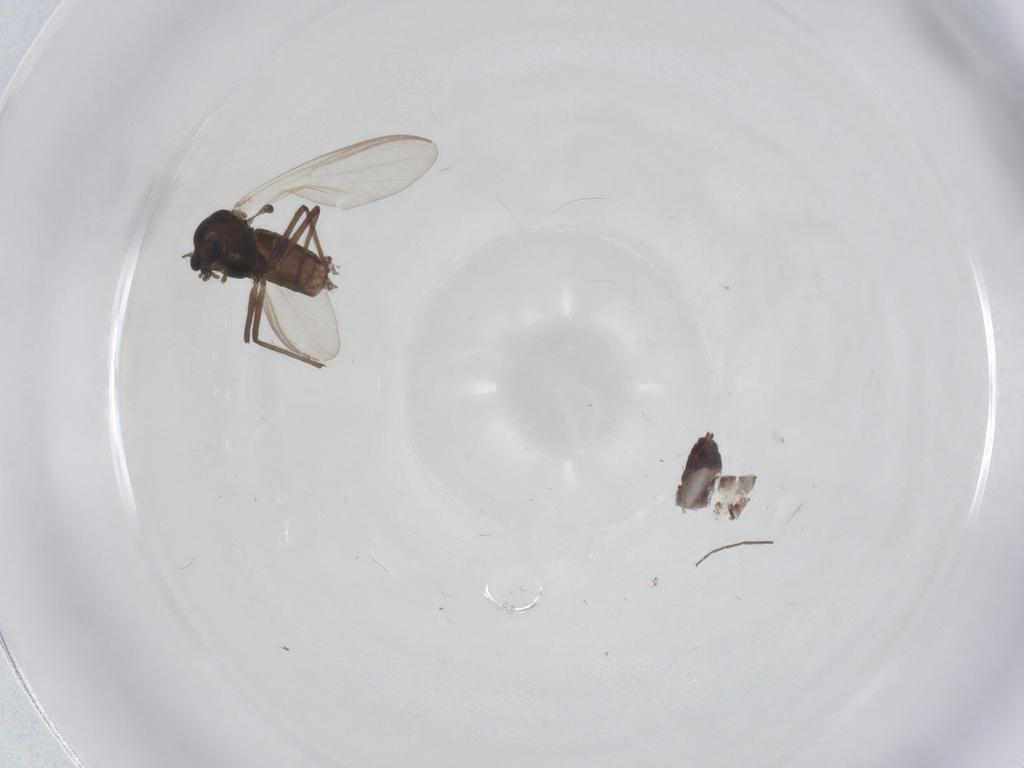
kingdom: Animalia
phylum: Arthropoda
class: Insecta
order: Diptera
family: Chironomidae
